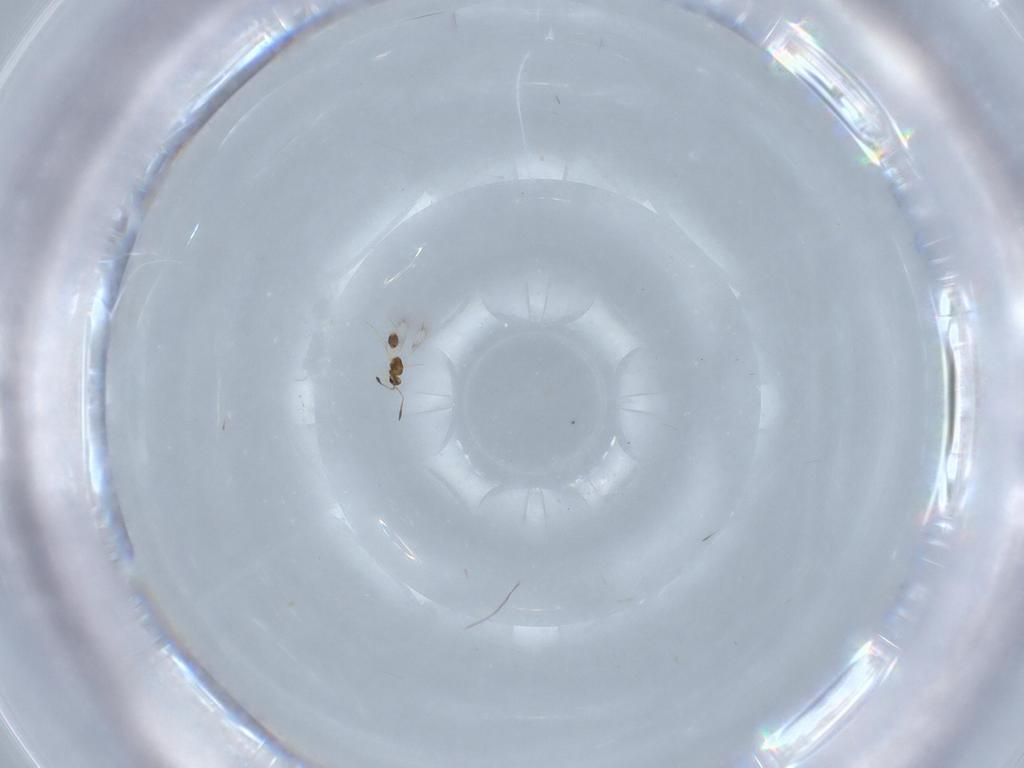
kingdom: Animalia
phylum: Arthropoda
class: Insecta
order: Hymenoptera
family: Mymarommatidae
